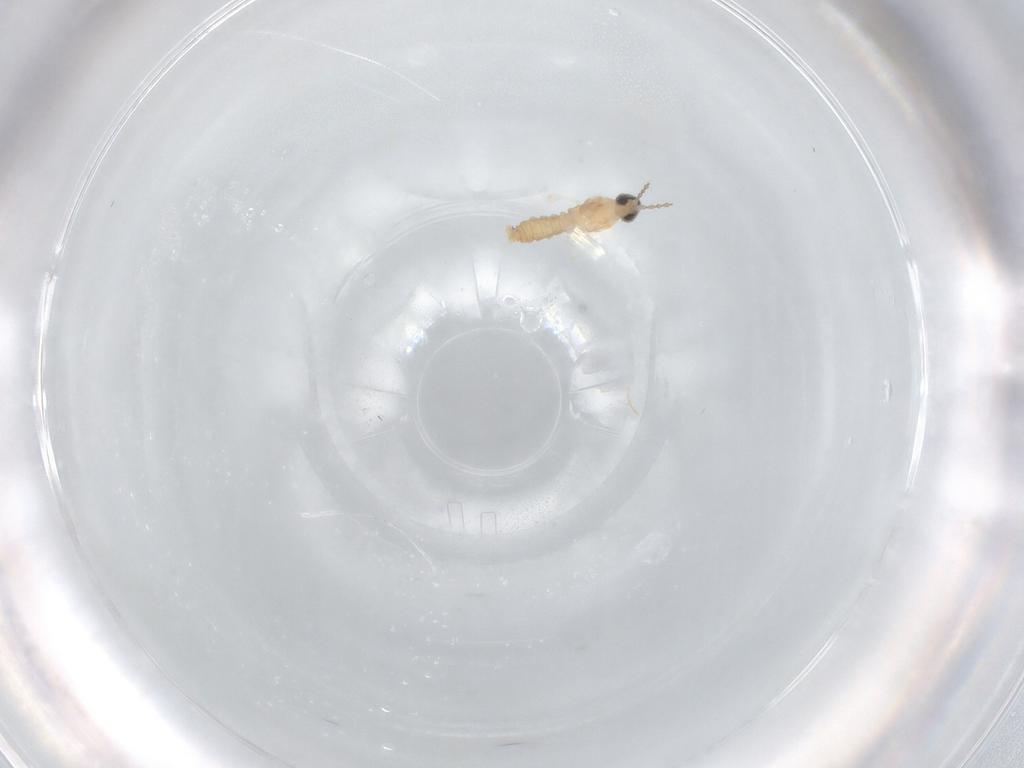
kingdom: Animalia
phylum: Arthropoda
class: Insecta
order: Diptera
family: Cecidomyiidae
